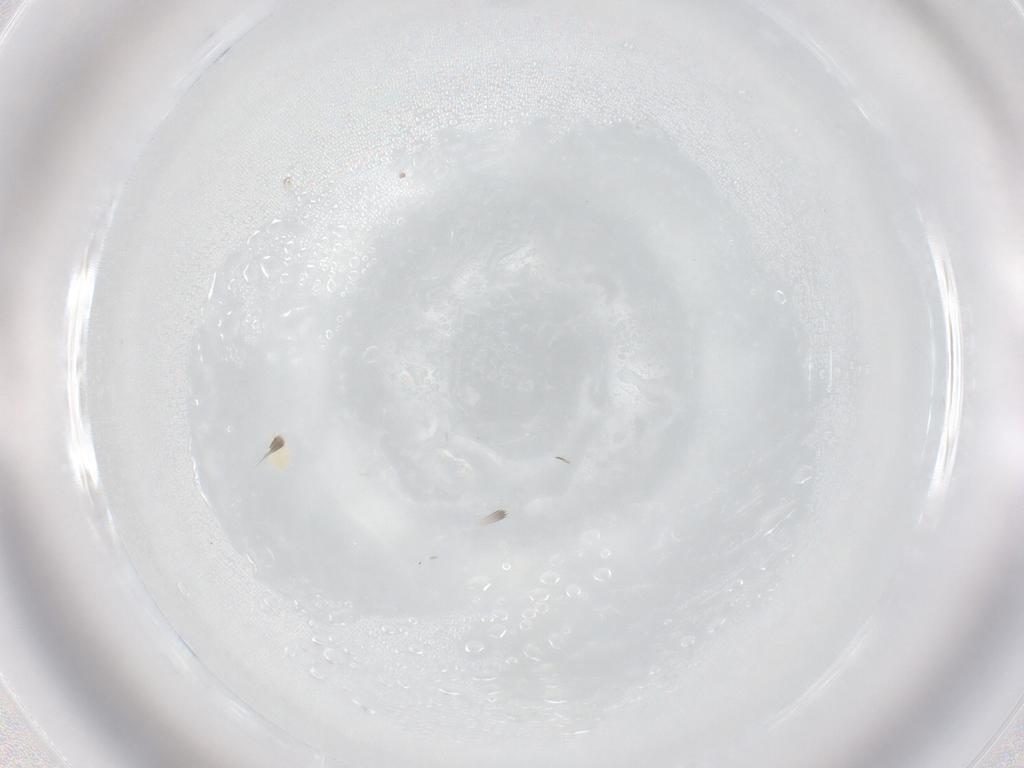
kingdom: Animalia
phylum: Arthropoda
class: Arachnida
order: Trombidiformes
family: Tetranychidae
